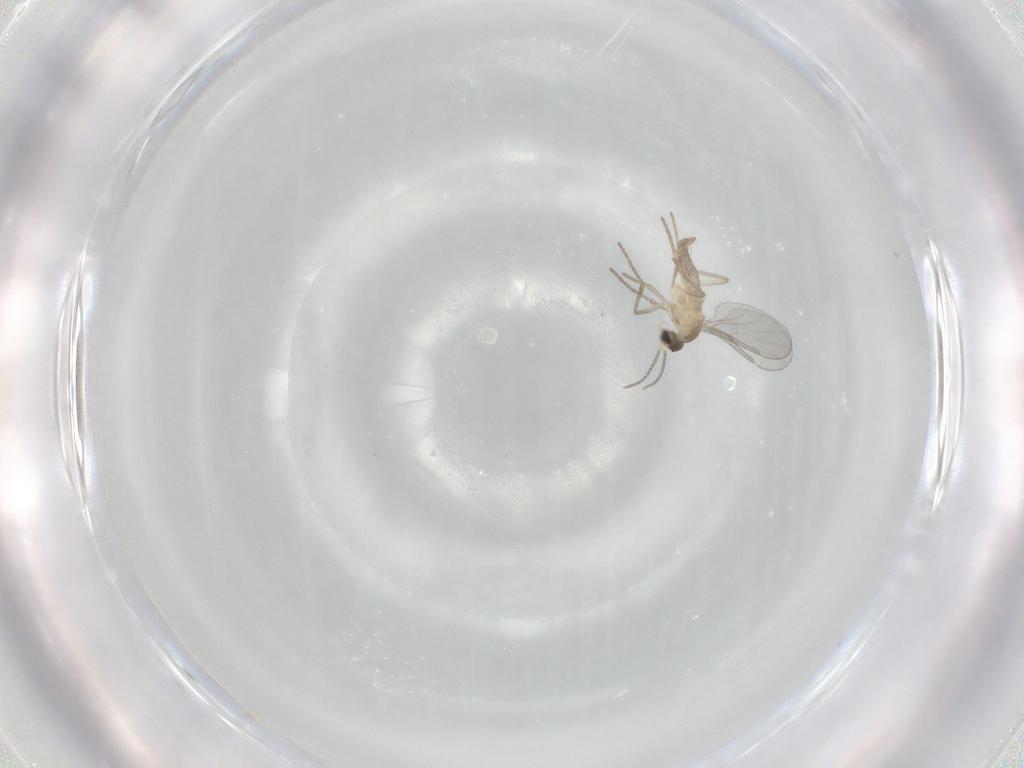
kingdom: Animalia
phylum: Arthropoda
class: Insecta
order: Diptera
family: Cecidomyiidae
